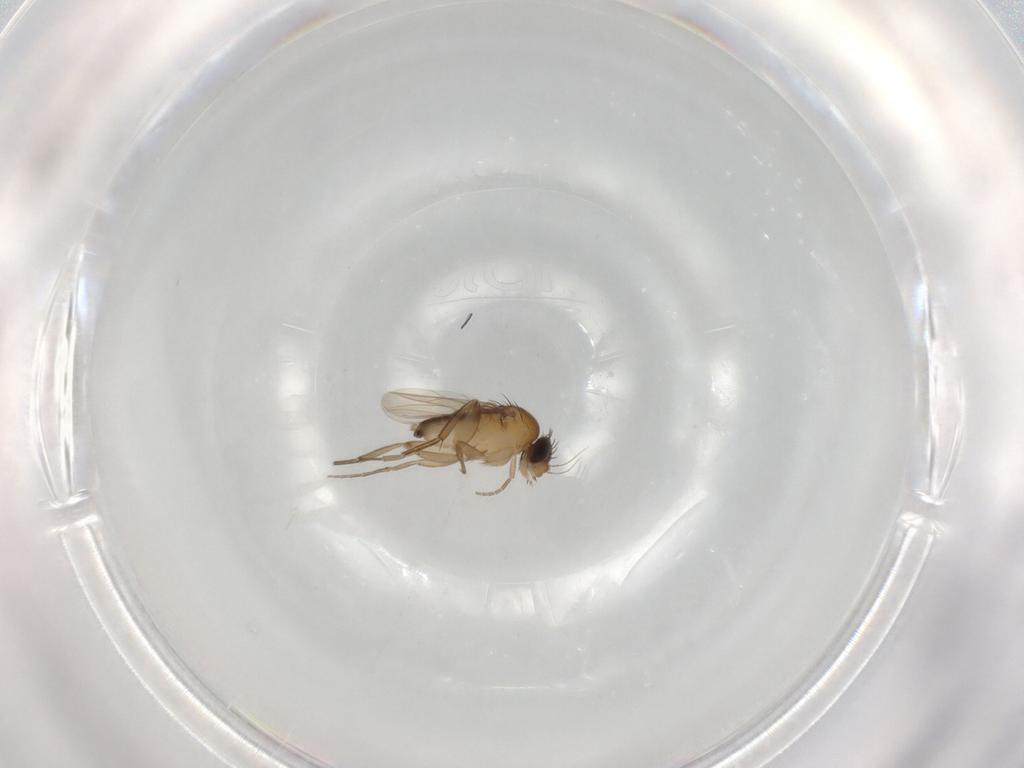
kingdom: Animalia
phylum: Arthropoda
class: Insecta
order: Diptera
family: Phoridae
